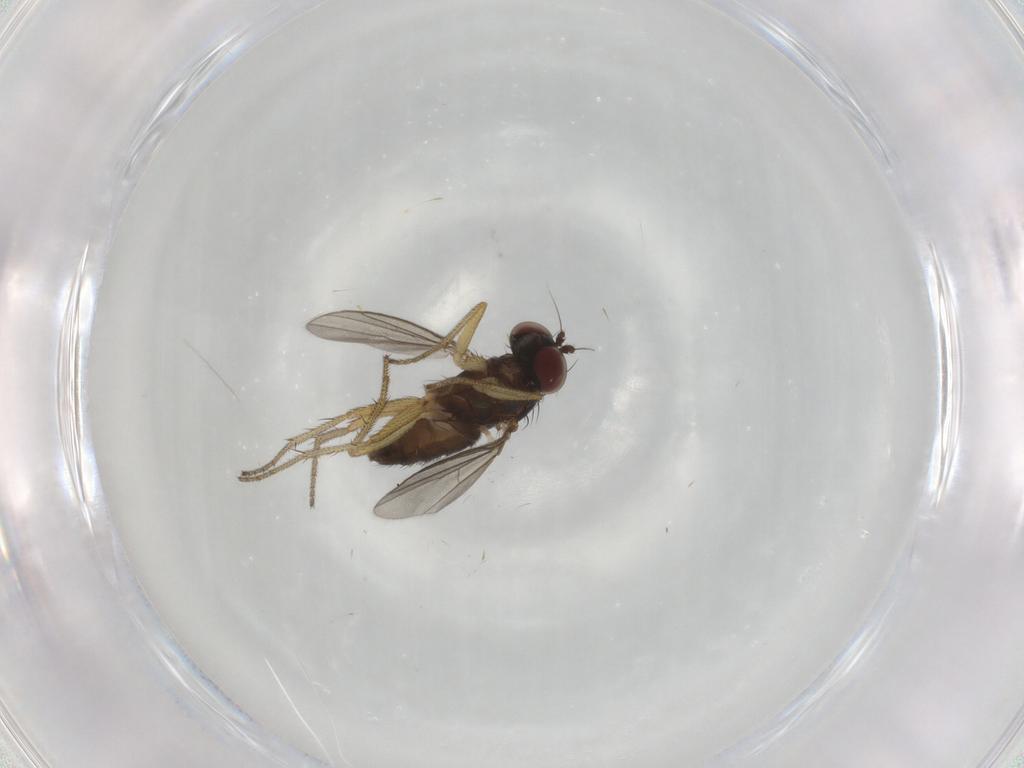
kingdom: Animalia
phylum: Arthropoda
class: Insecta
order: Diptera
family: Dolichopodidae
